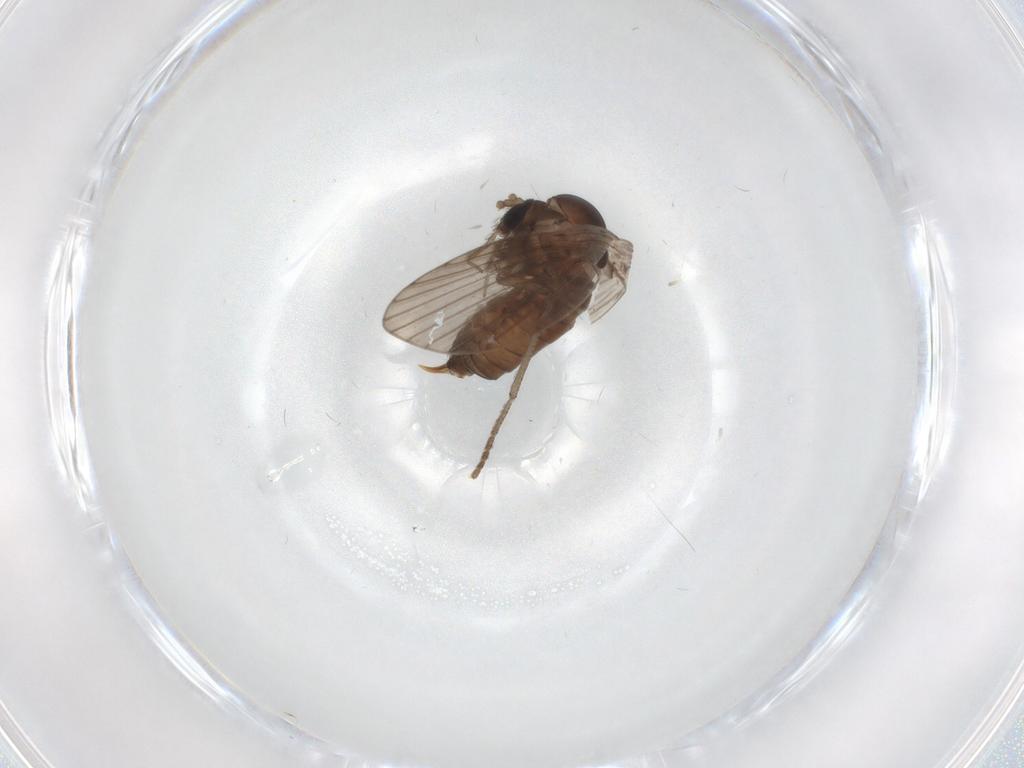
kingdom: Animalia
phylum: Arthropoda
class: Insecta
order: Diptera
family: Psychodidae
